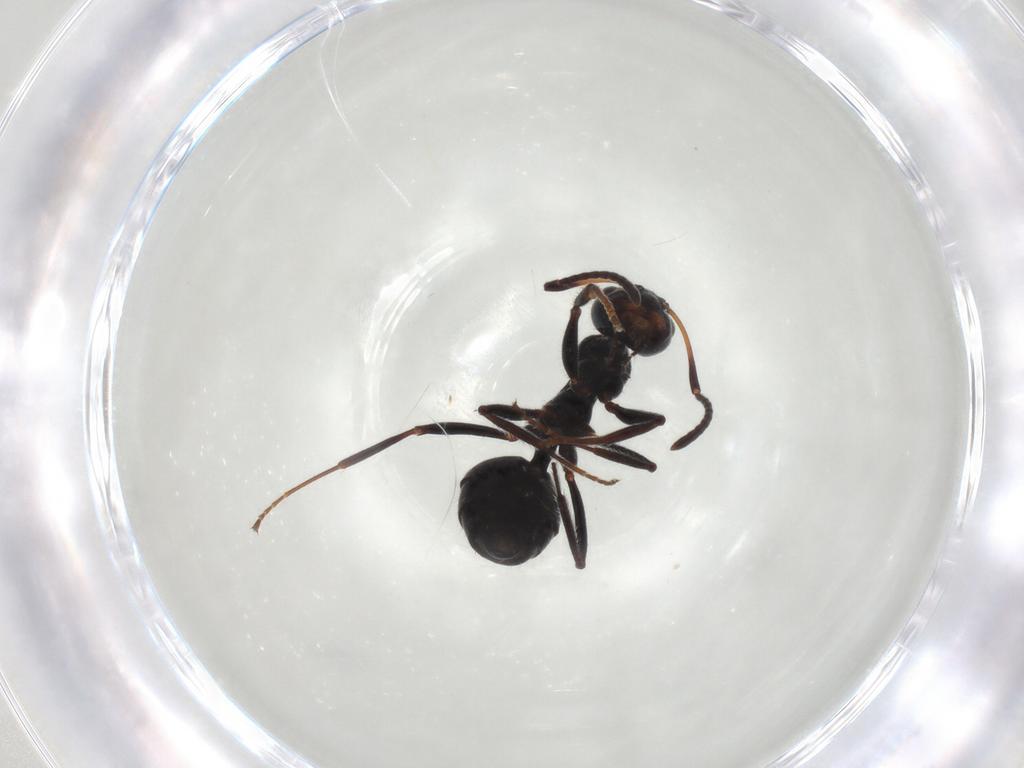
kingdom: Animalia
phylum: Arthropoda
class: Insecta
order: Hymenoptera
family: Formicidae
